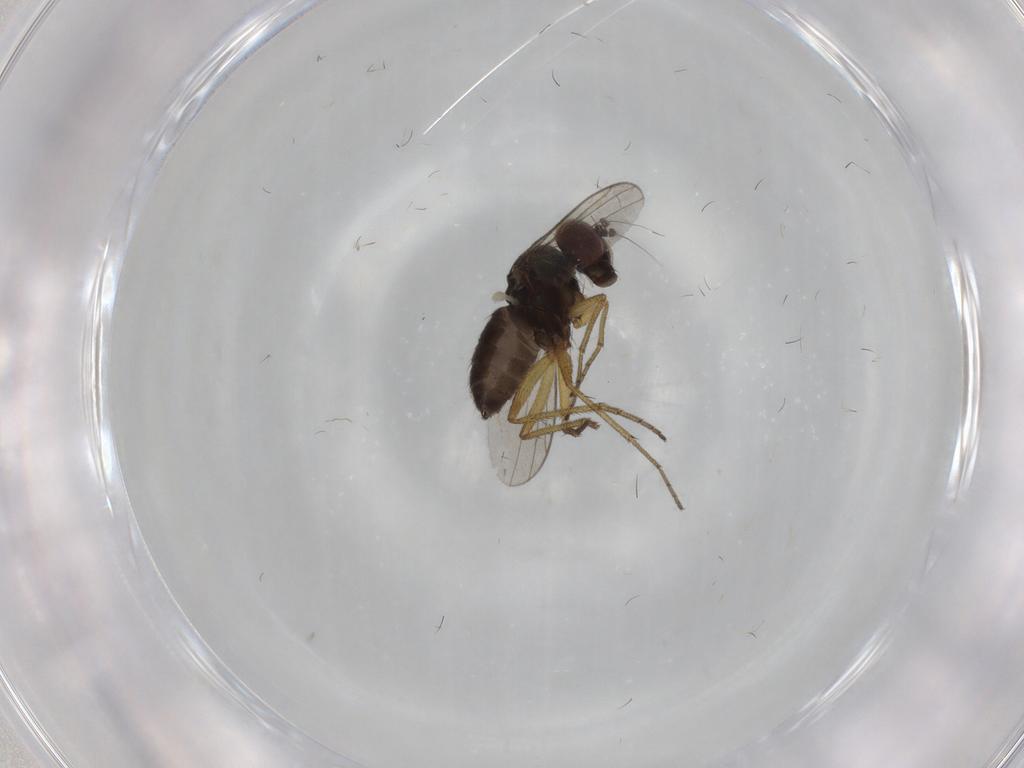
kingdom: Animalia
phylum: Arthropoda
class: Insecta
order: Diptera
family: Dolichopodidae
